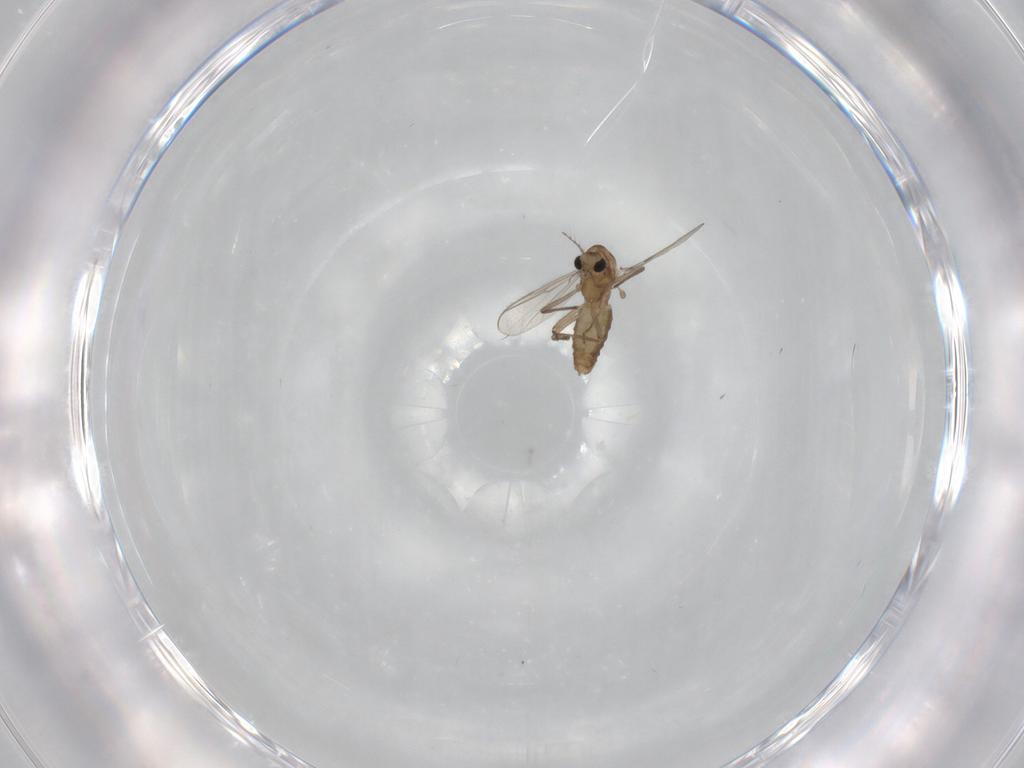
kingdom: Animalia
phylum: Arthropoda
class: Insecta
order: Diptera
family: Chironomidae
